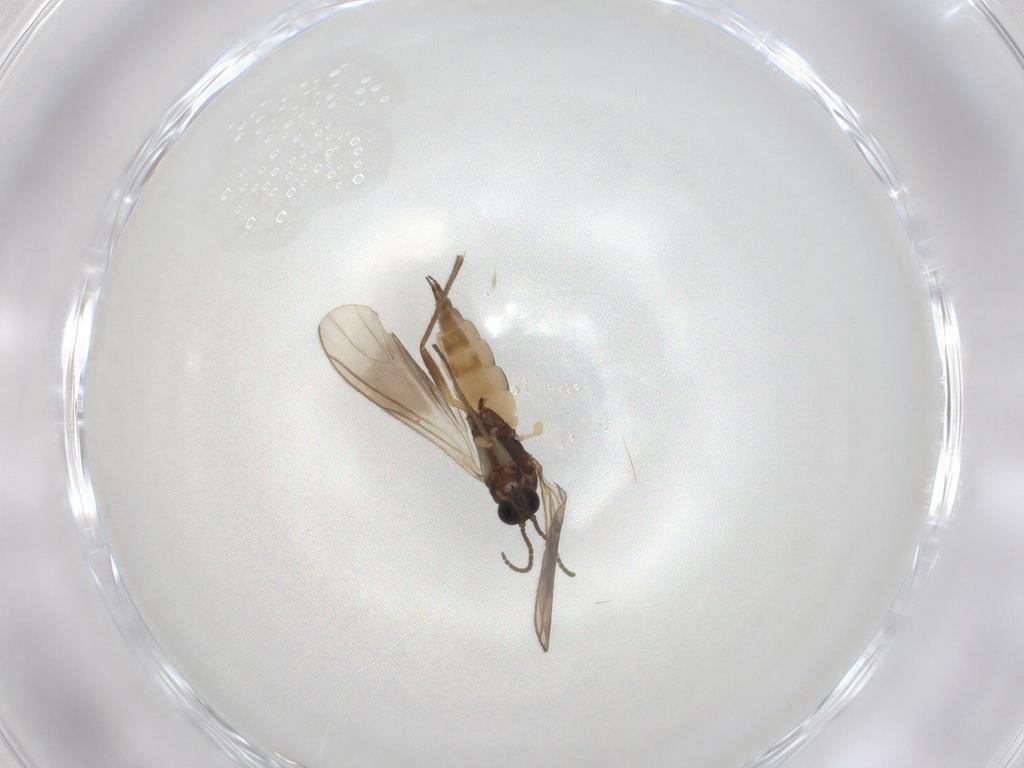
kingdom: Animalia
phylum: Arthropoda
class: Insecta
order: Diptera
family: Sciaridae
